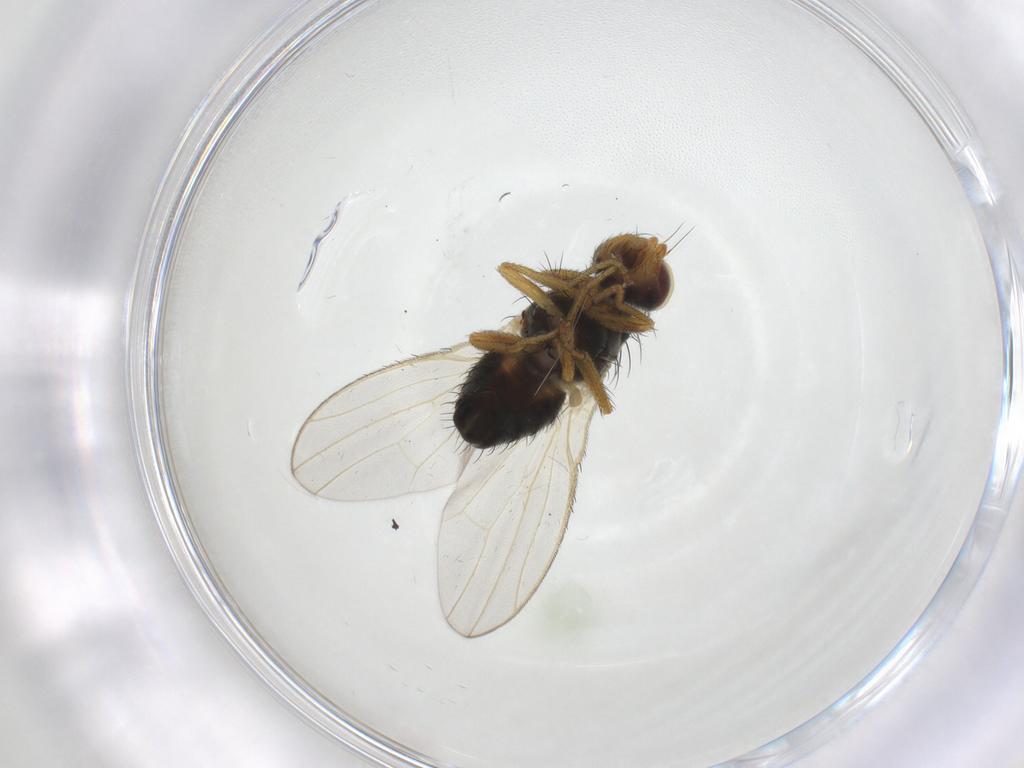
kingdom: Animalia
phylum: Arthropoda
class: Insecta
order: Diptera
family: Heleomyzidae
